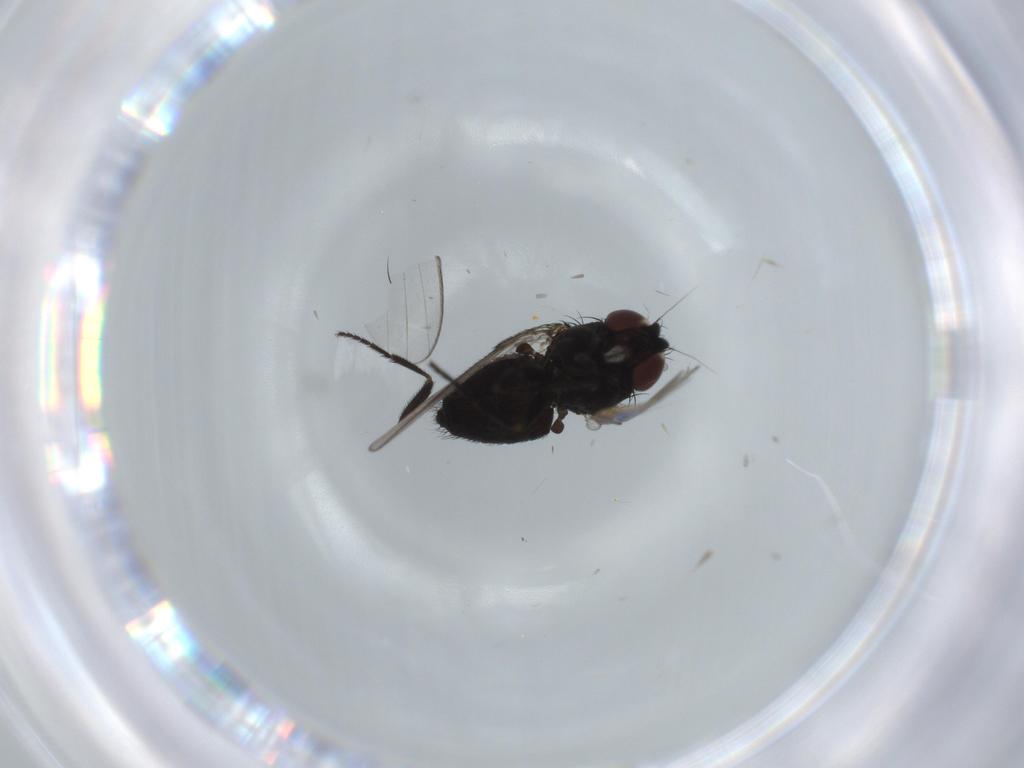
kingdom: Animalia
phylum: Arthropoda
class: Insecta
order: Diptera
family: Milichiidae
